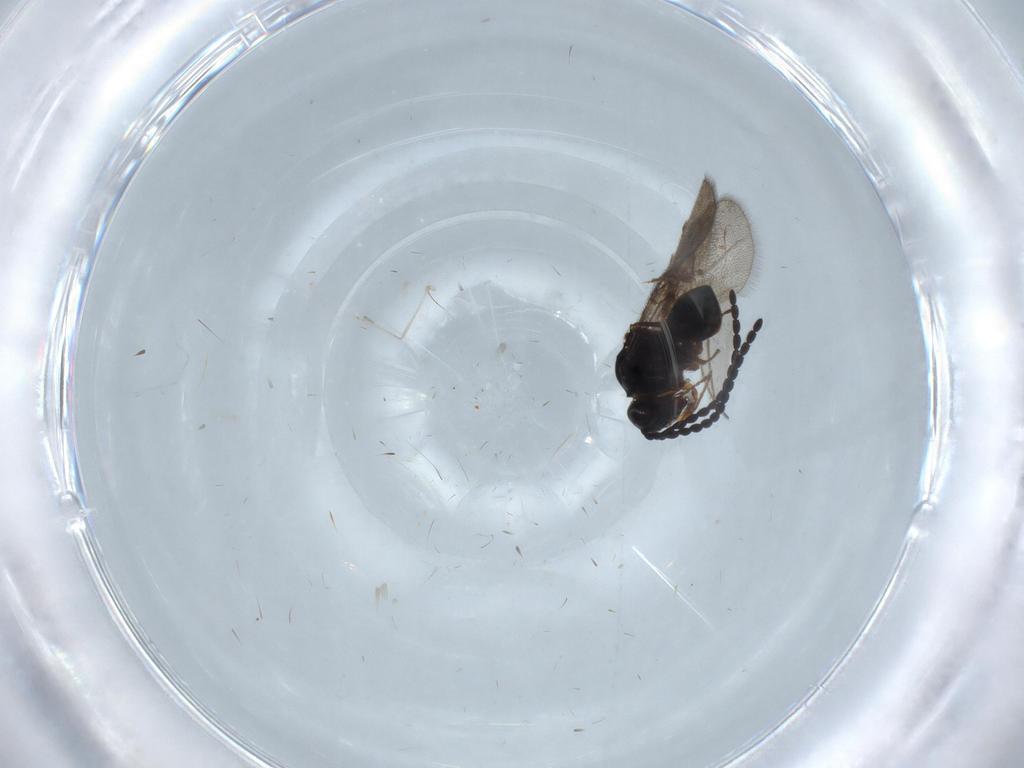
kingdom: Animalia
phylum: Arthropoda
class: Insecta
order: Hymenoptera
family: Figitidae
